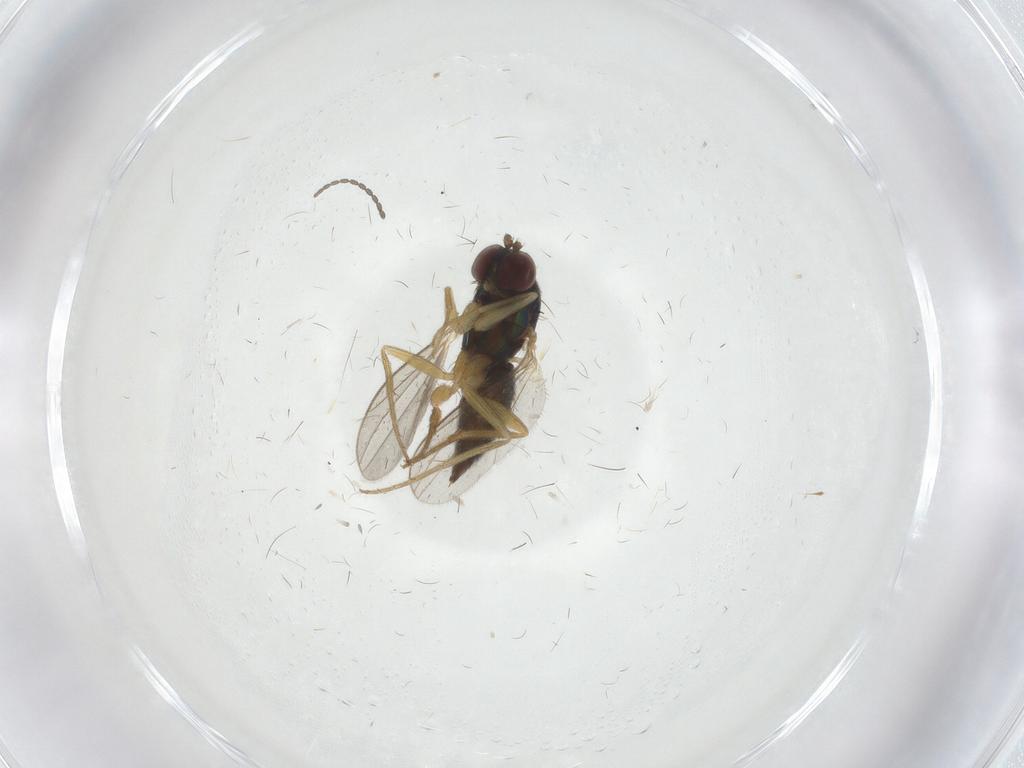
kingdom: Animalia
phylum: Arthropoda
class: Insecta
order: Diptera
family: Dolichopodidae
